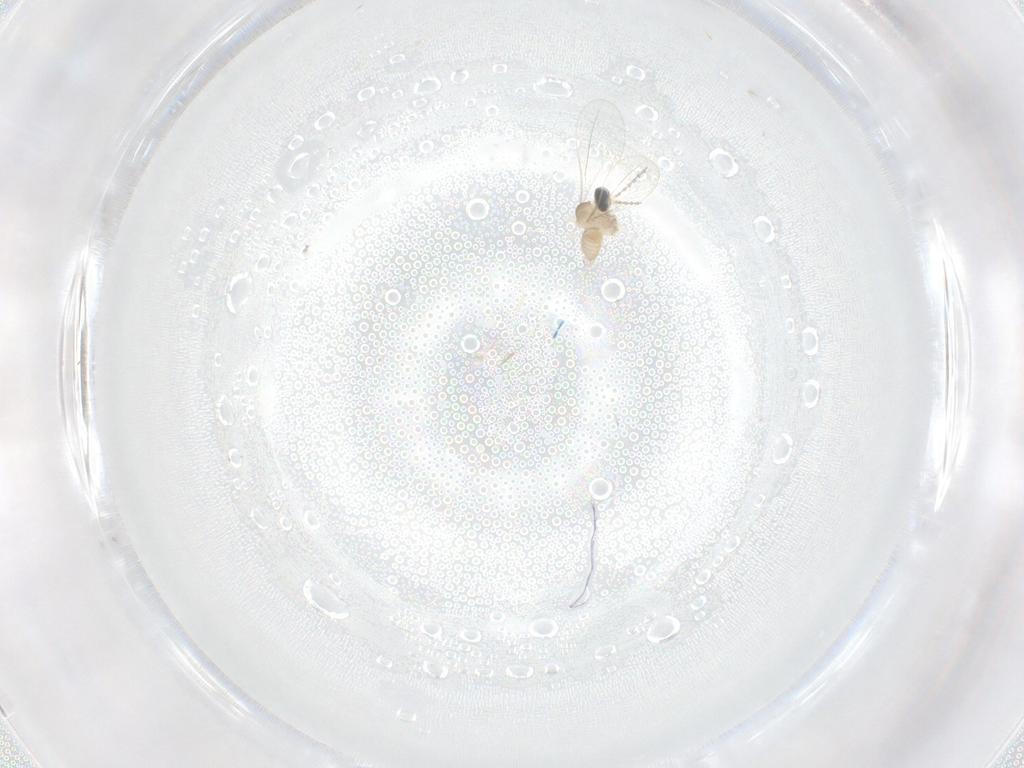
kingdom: Animalia
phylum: Arthropoda
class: Insecta
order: Diptera
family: Cecidomyiidae
